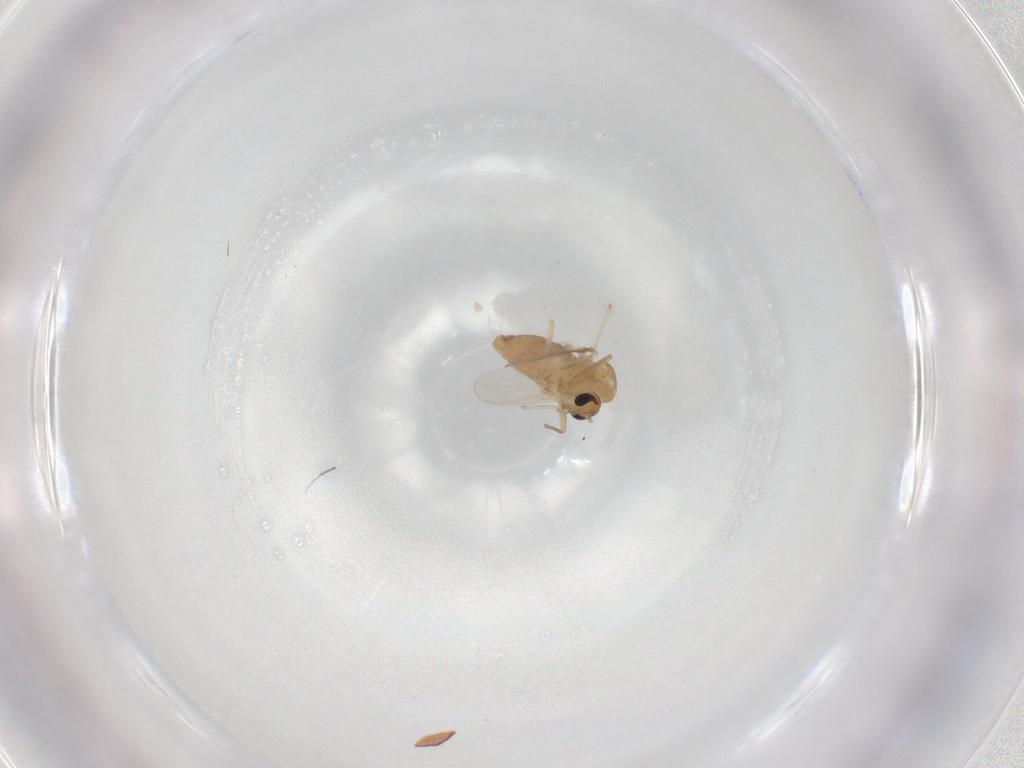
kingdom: Animalia
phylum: Arthropoda
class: Insecta
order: Diptera
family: Chironomidae
